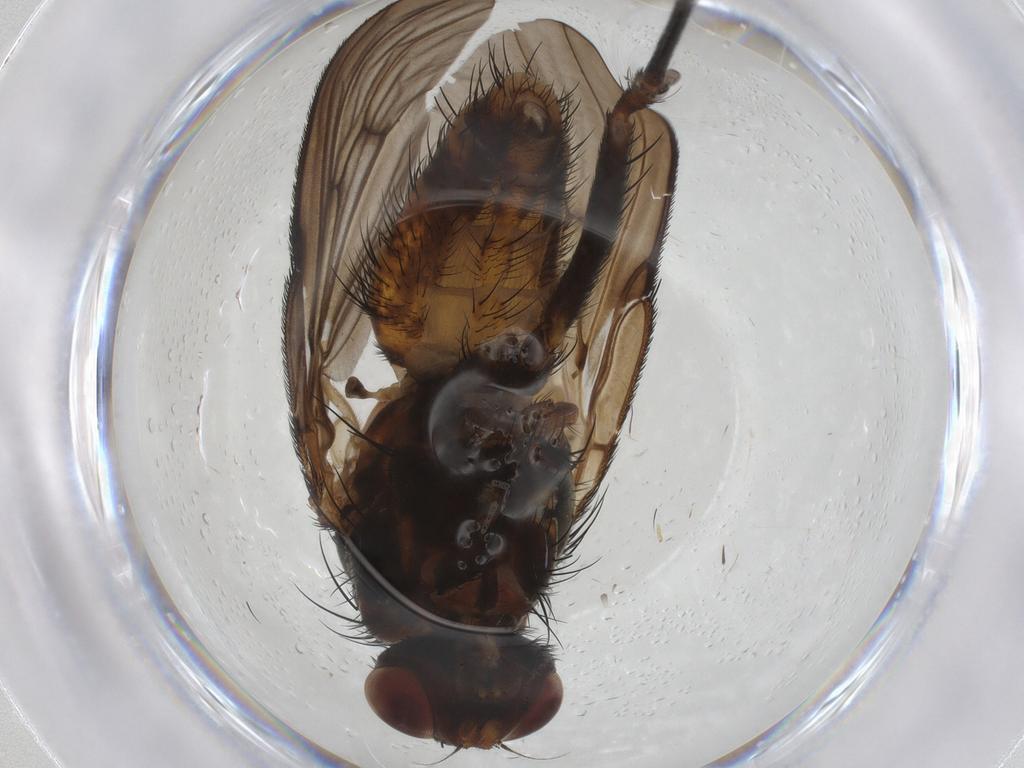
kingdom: Animalia
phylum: Arthropoda
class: Insecta
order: Diptera
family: Muscidae
